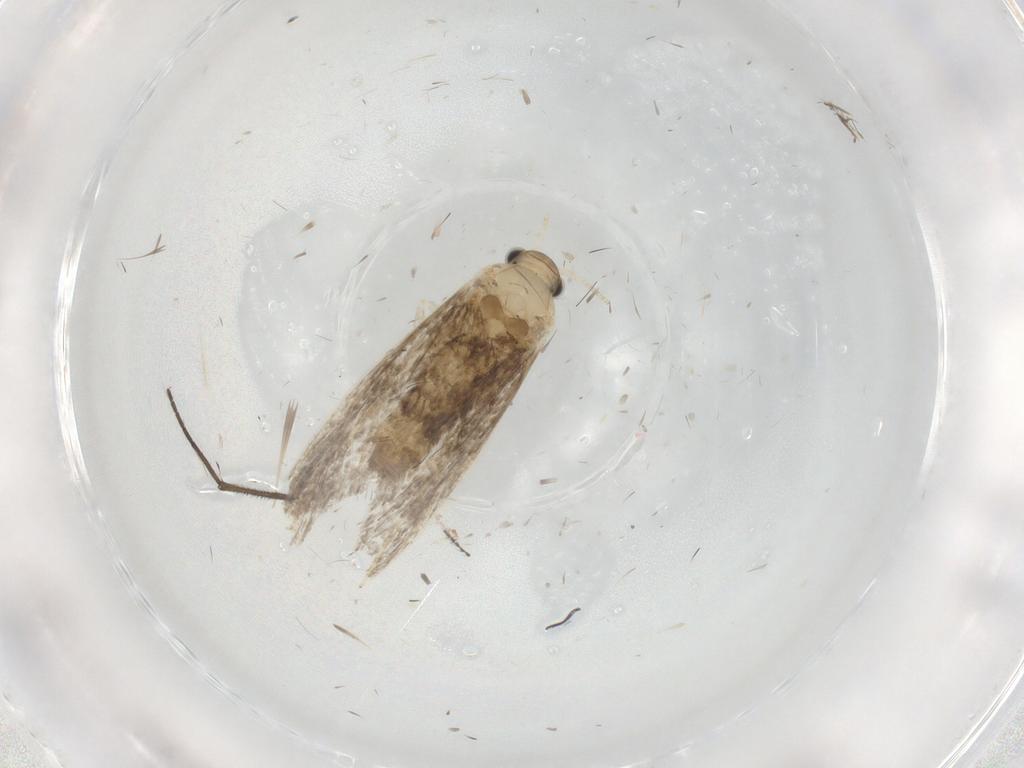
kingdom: Animalia
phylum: Arthropoda
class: Insecta
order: Lepidoptera
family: Tineidae
